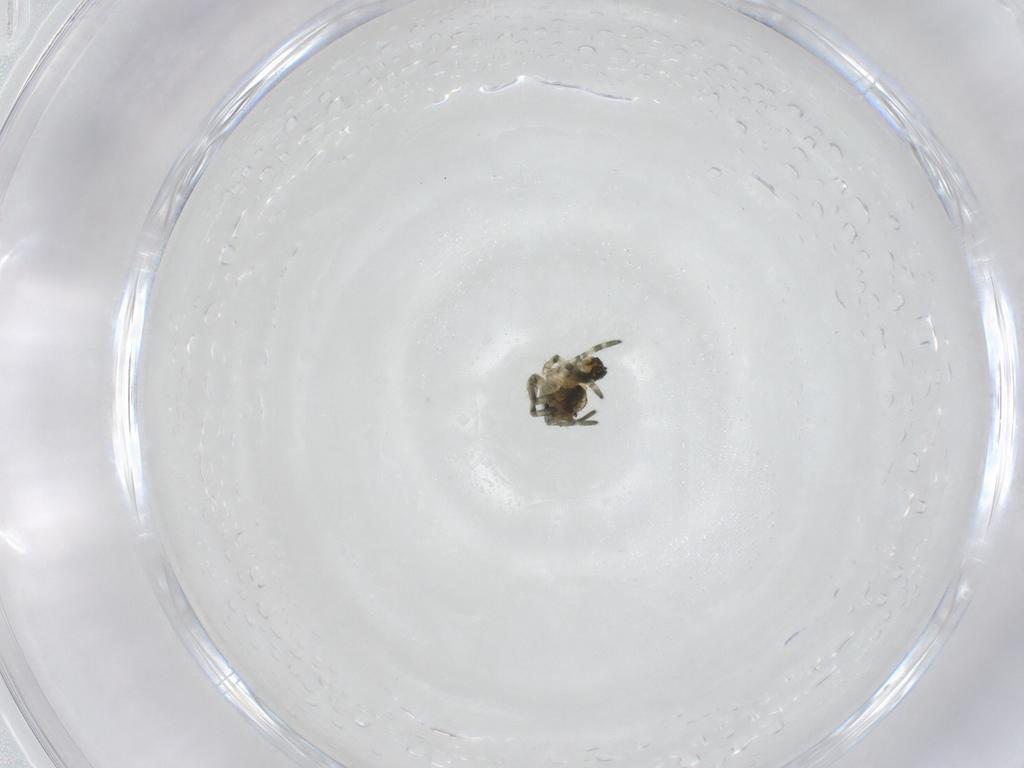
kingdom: Animalia
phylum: Arthropoda
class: Arachnida
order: Araneae
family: Tetragnathidae
